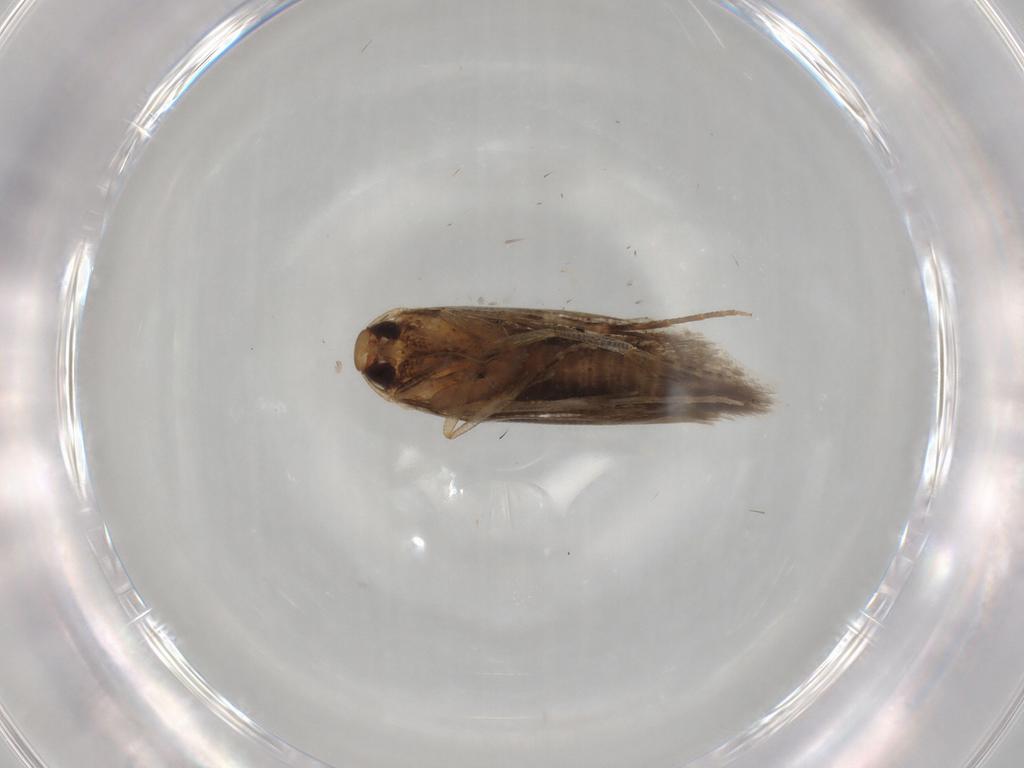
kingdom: Animalia
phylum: Arthropoda
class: Insecta
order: Lepidoptera
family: Cosmopterigidae
